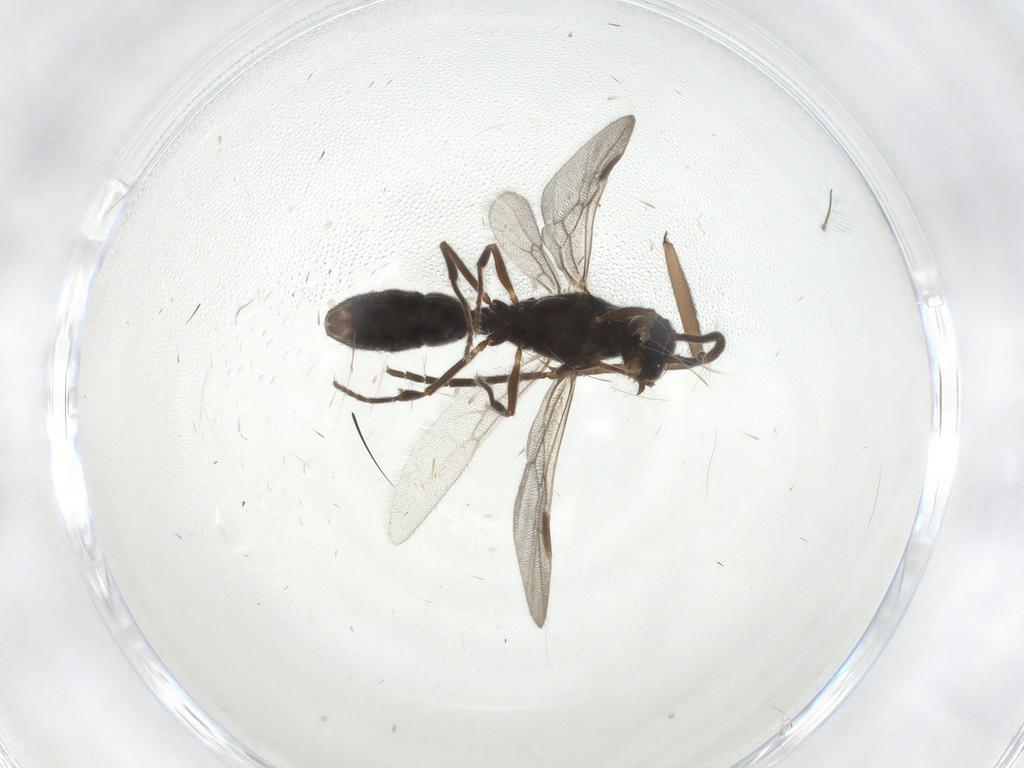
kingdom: Animalia
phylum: Arthropoda
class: Insecta
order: Hymenoptera
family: Formicidae
